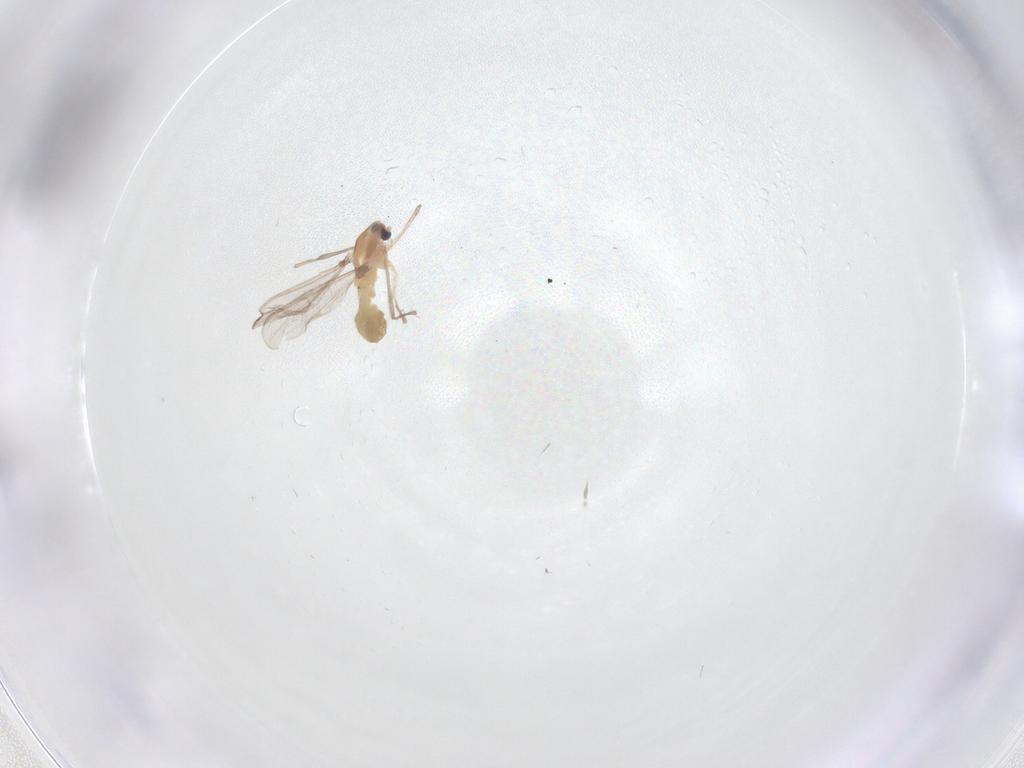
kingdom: Animalia
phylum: Arthropoda
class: Insecta
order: Diptera
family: Chironomidae
